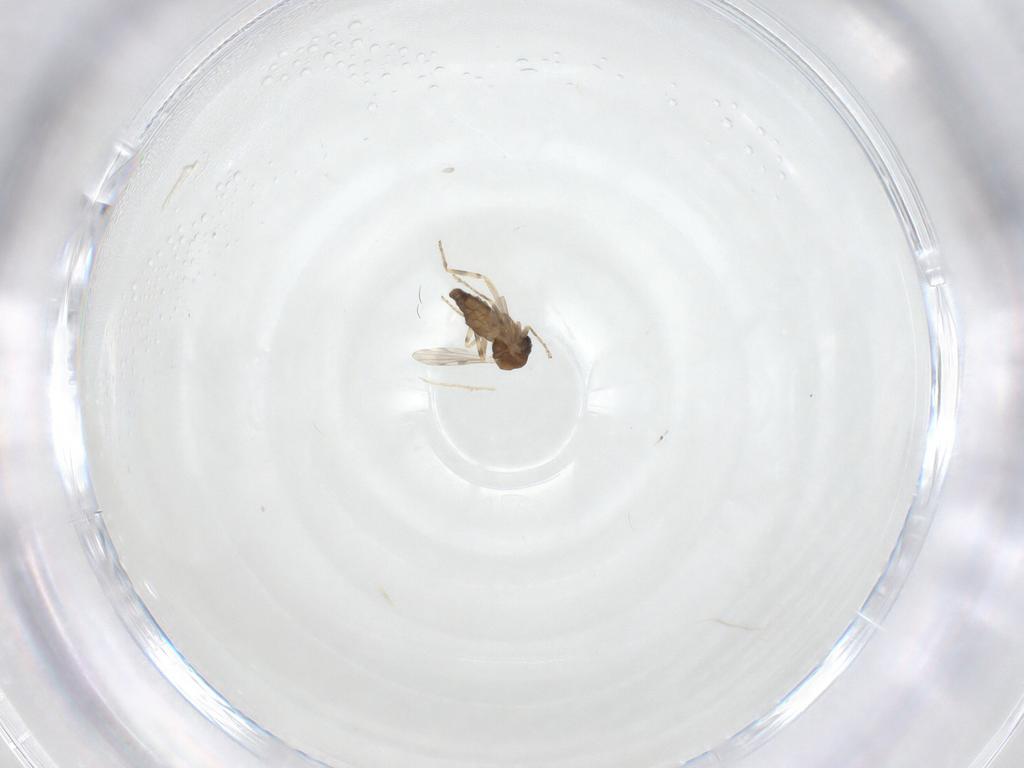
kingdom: Animalia
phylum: Arthropoda
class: Insecta
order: Diptera
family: Ceratopogonidae
